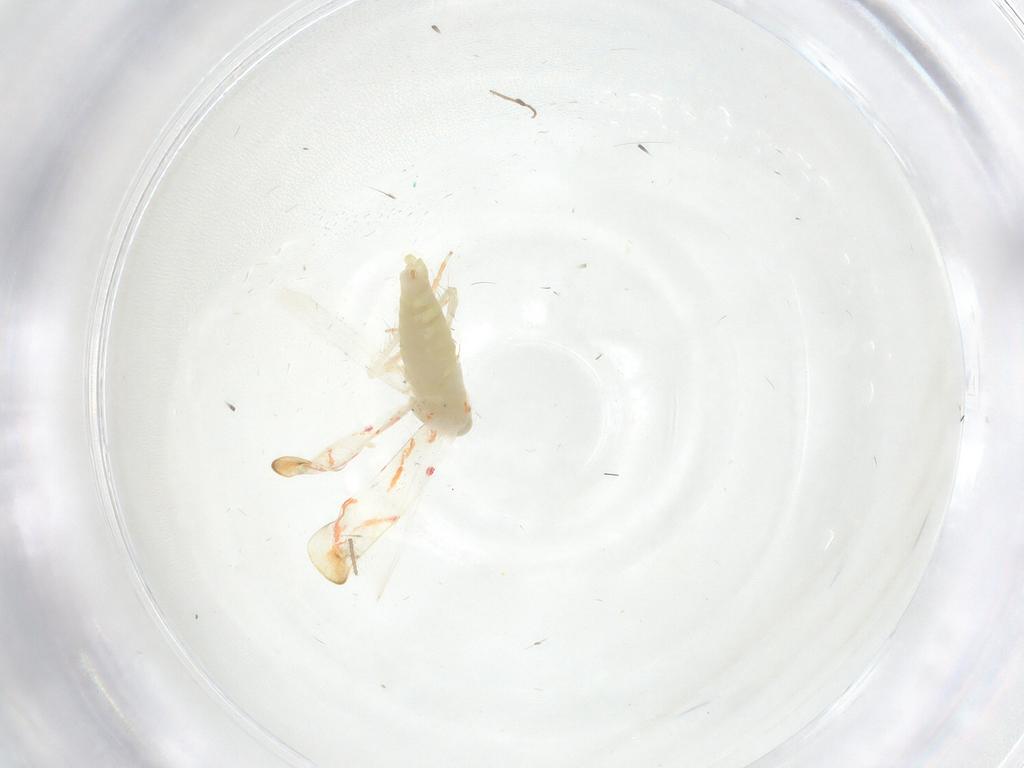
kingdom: Animalia
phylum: Arthropoda
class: Insecta
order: Hemiptera
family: Cicadellidae
